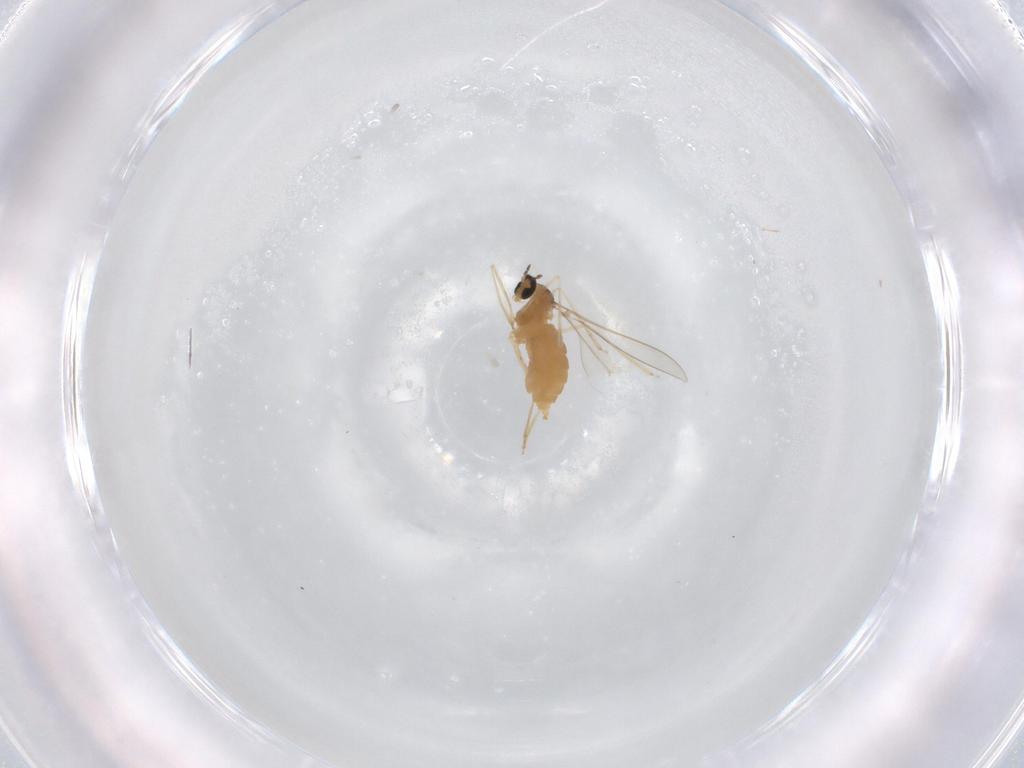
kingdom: Animalia
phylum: Arthropoda
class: Insecta
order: Diptera
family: Cecidomyiidae
